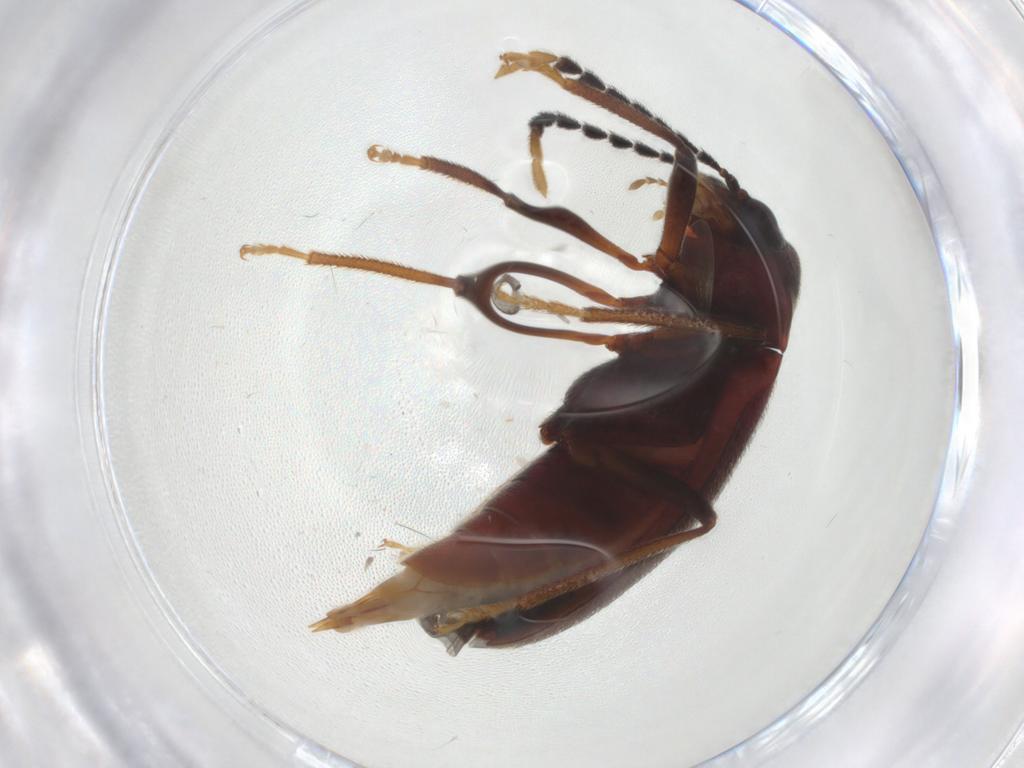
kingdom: Animalia
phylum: Arthropoda
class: Insecta
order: Coleoptera
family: Ptilodactylidae
